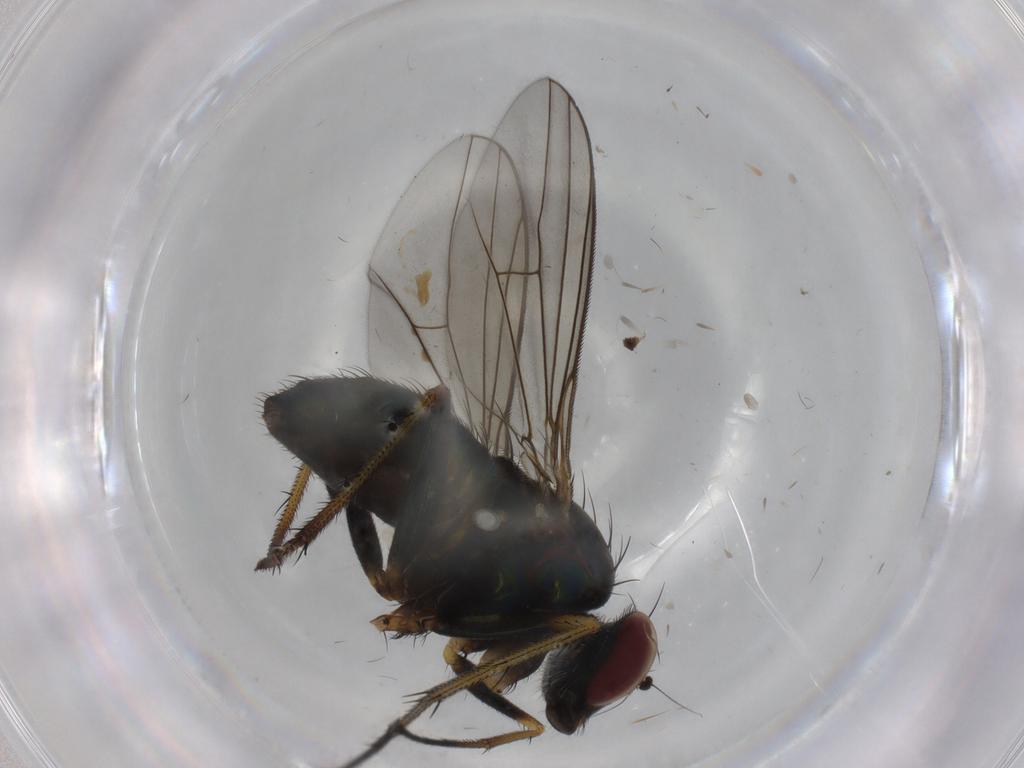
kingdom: Animalia
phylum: Arthropoda
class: Insecta
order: Diptera
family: Dolichopodidae
